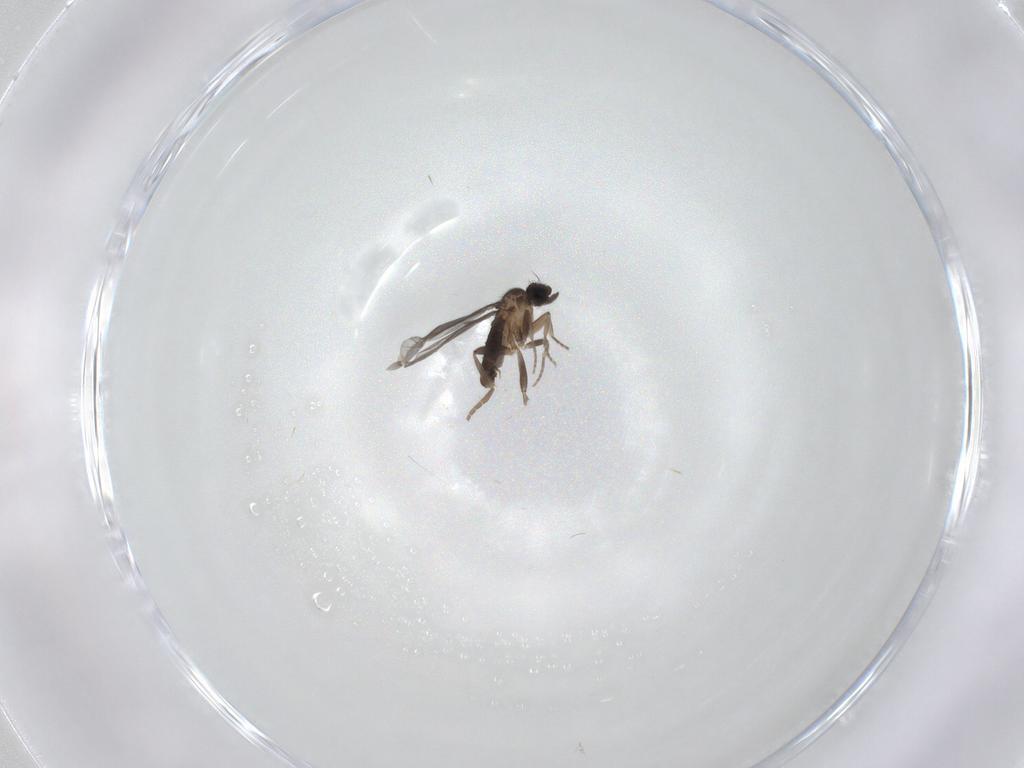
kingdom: Animalia
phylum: Arthropoda
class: Insecta
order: Diptera
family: Phoridae
